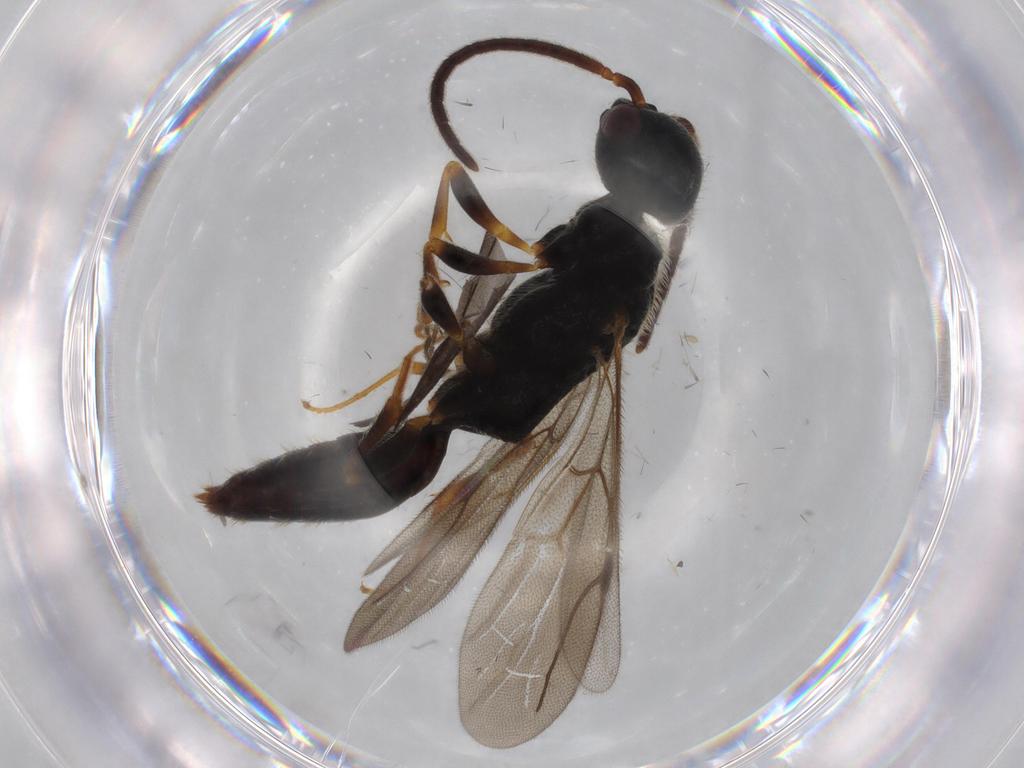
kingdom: Animalia
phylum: Arthropoda
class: Insecta
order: Hymenoptera
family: Bethylidae
